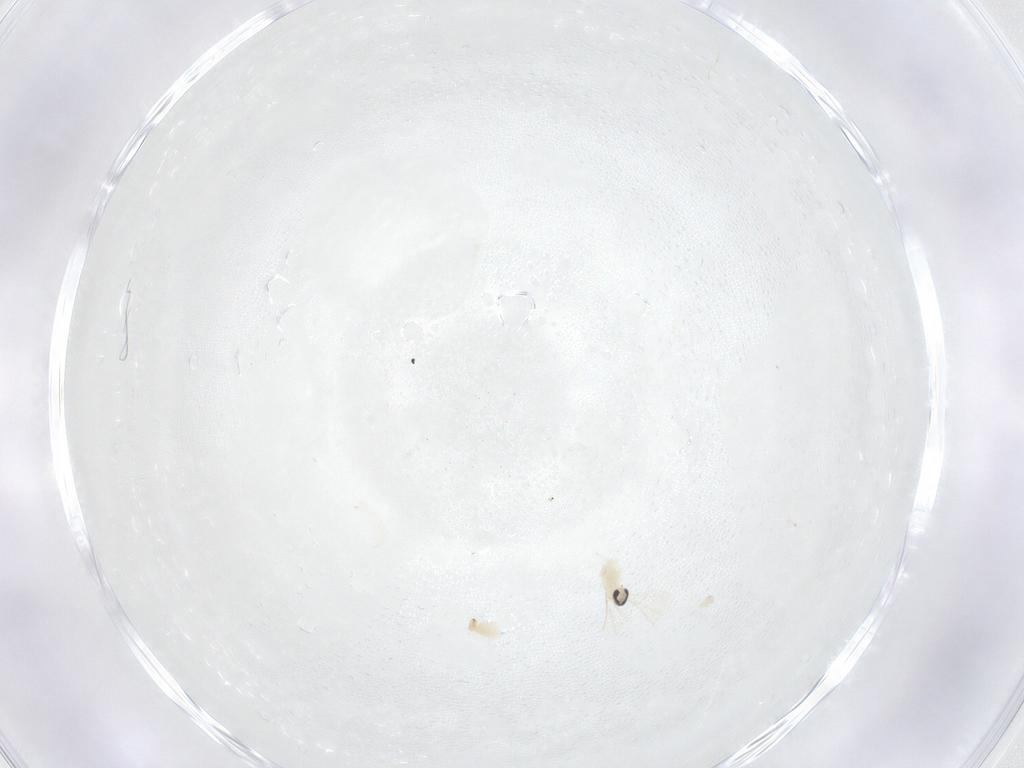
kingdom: Animalia
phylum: Arthropoda
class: Insecta
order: Diptera
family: Cecidomyiidae
